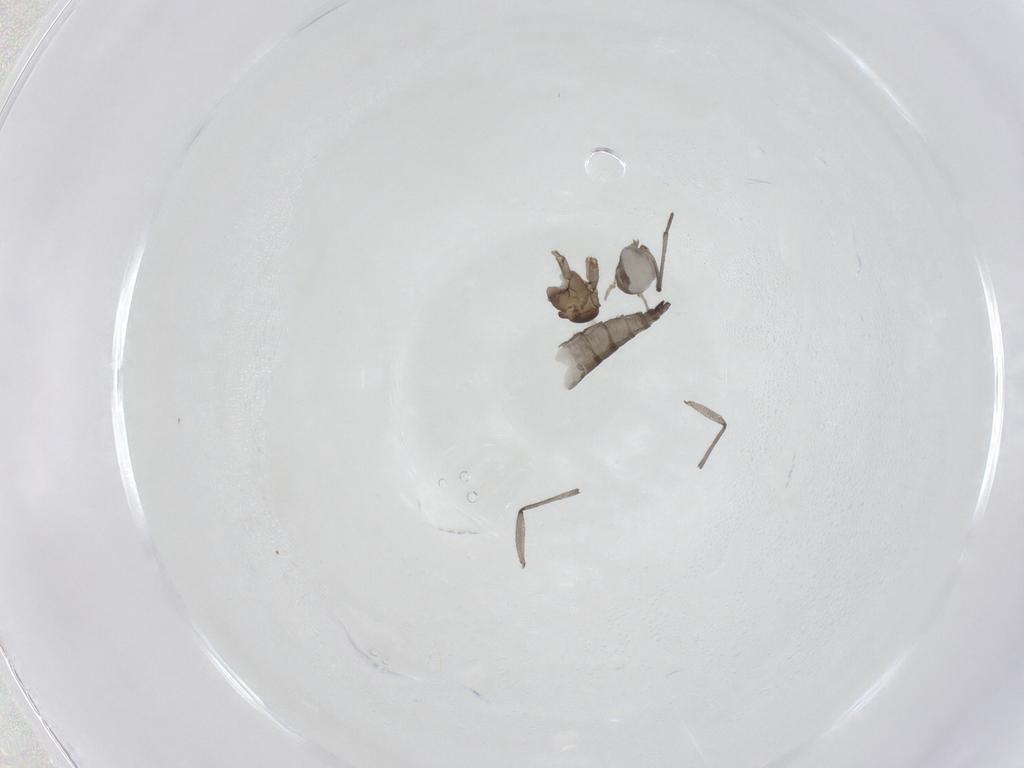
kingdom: Animalia
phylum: Arthropoda
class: Insecta
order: Diptera
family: Sciaridae
